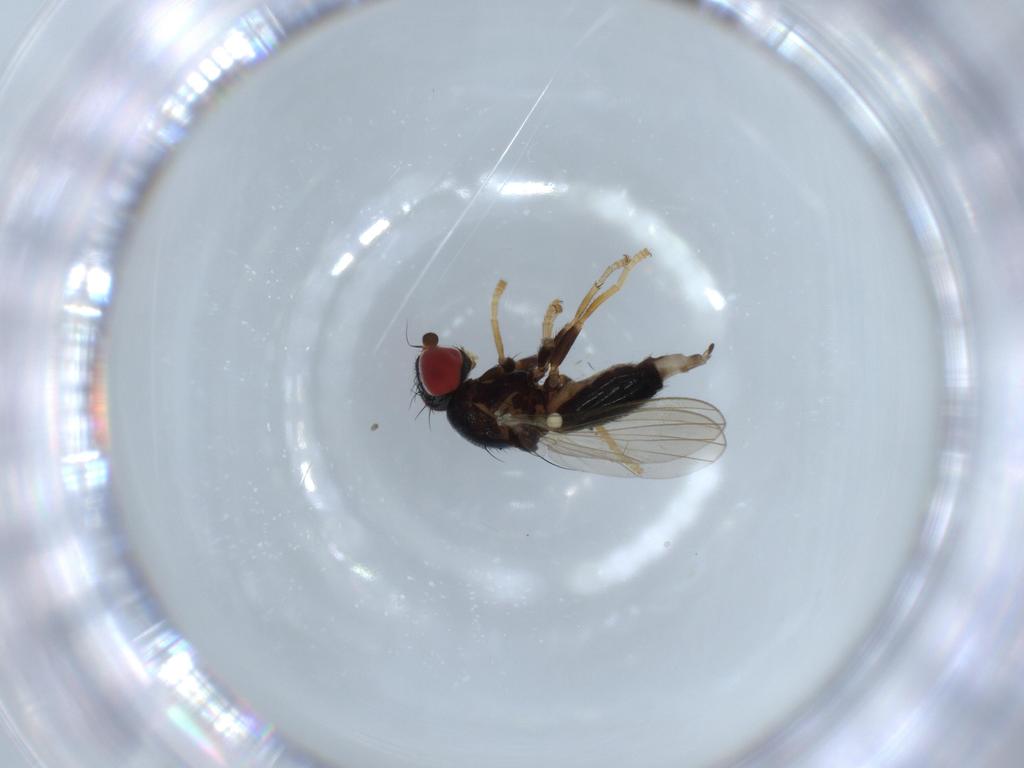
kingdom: Animalia
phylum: Arthropoda
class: Insecta
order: Diptera
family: Chamaemyiidae
